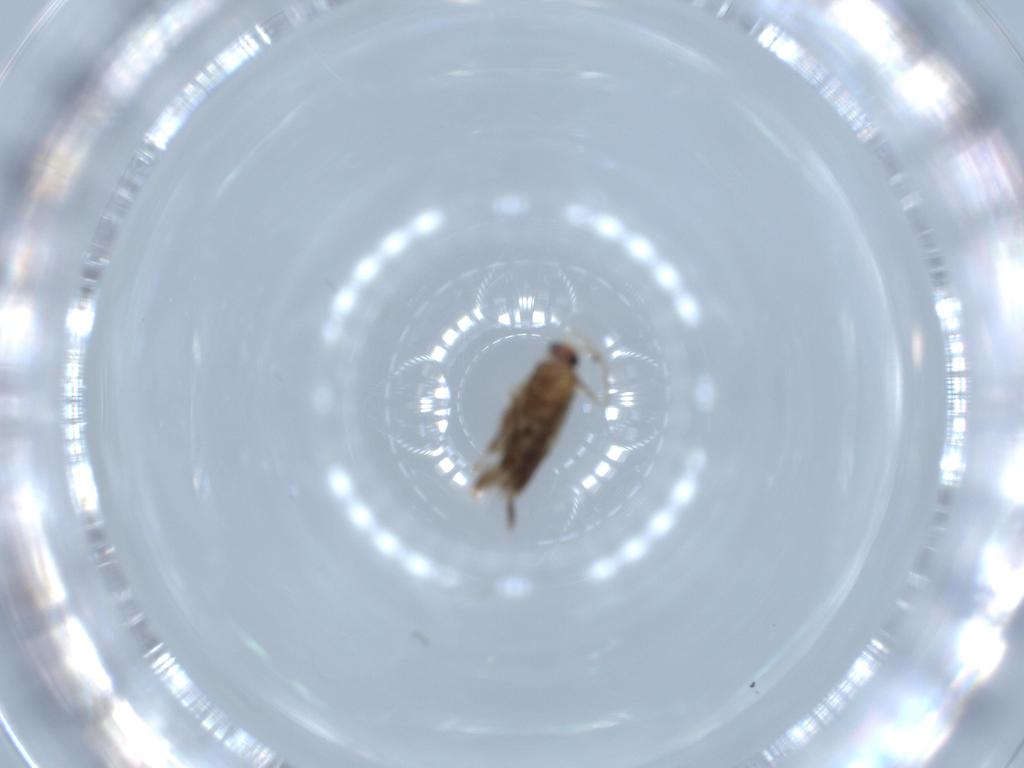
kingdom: Animalia
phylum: Arthropoda
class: Insecta
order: Lepidoptera
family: Nepticulidae
